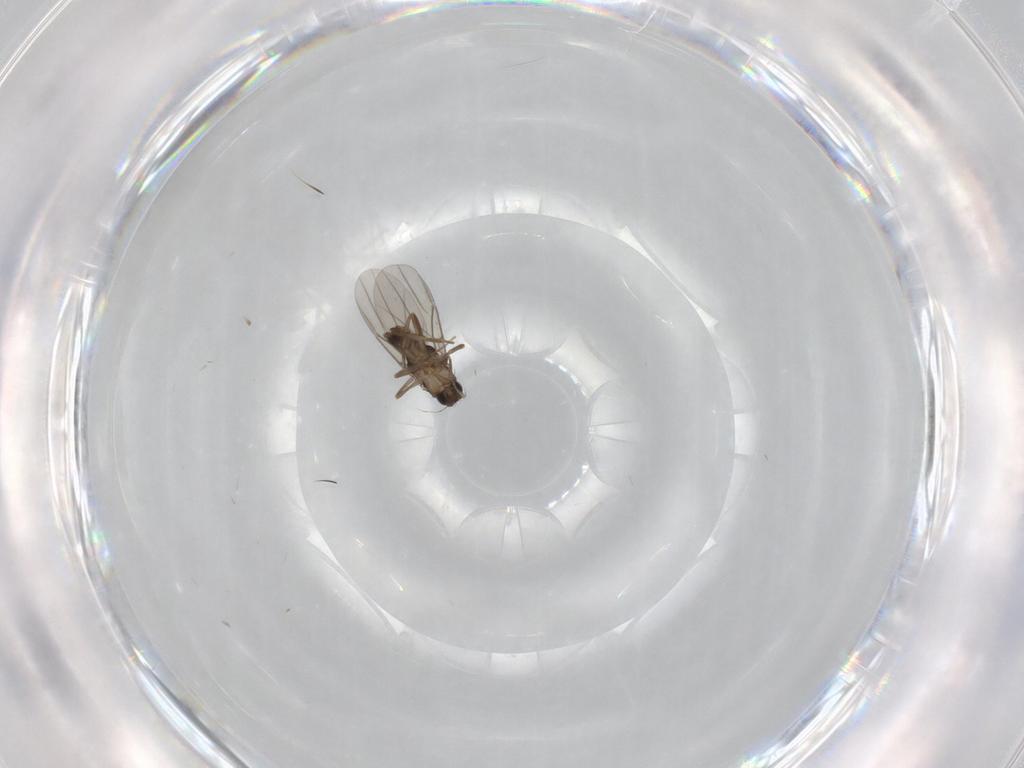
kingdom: Animalia
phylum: Arthropoda
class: Insecta
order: Diptera
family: Phoridae
